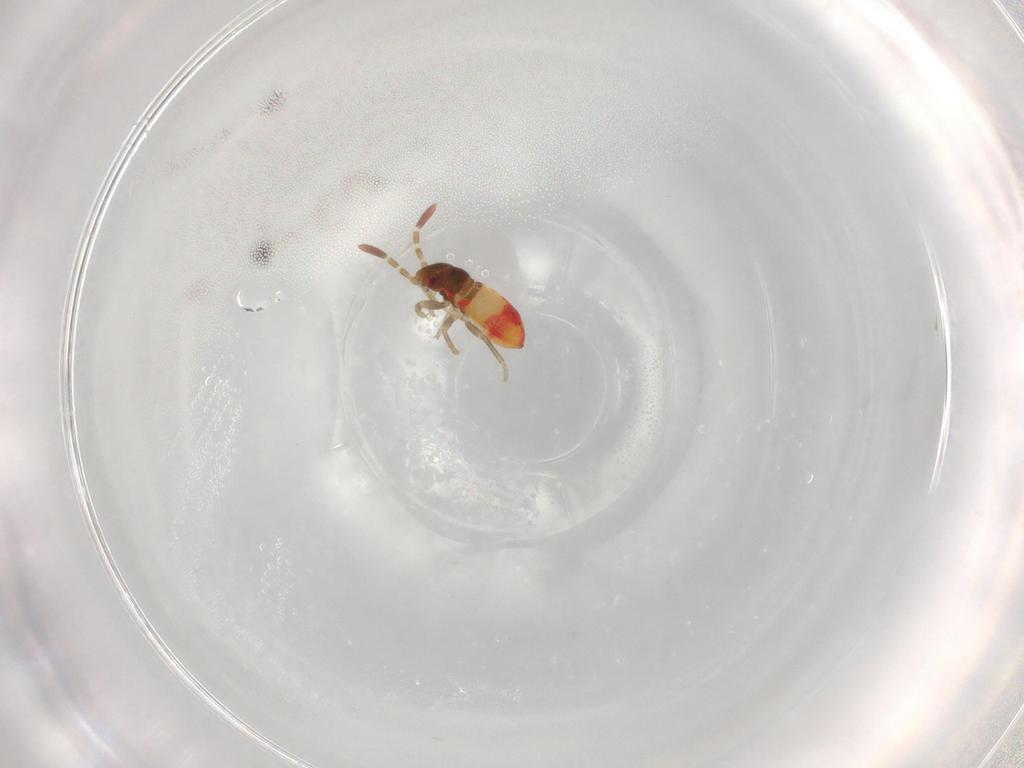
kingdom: Animalia
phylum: Arthropoda
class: Insecta
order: Hemiptera
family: Rhyparochromidae
